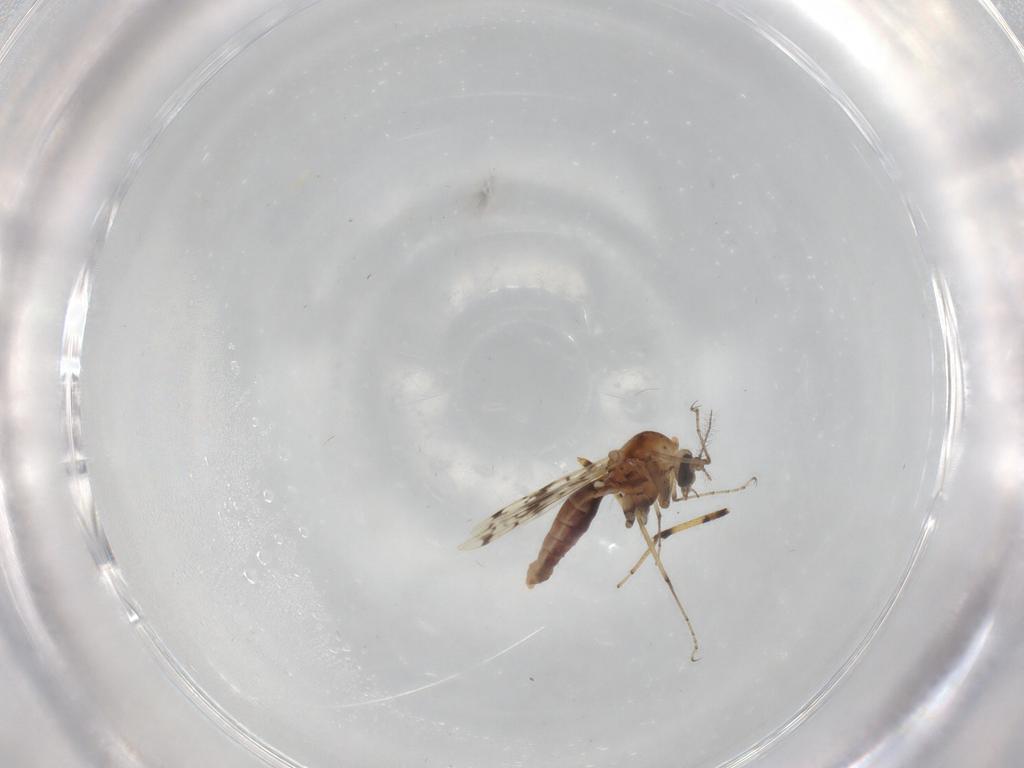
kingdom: Animalia
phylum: Arthropoda
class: Insecta
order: Diptera
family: Ceratopogonidae
